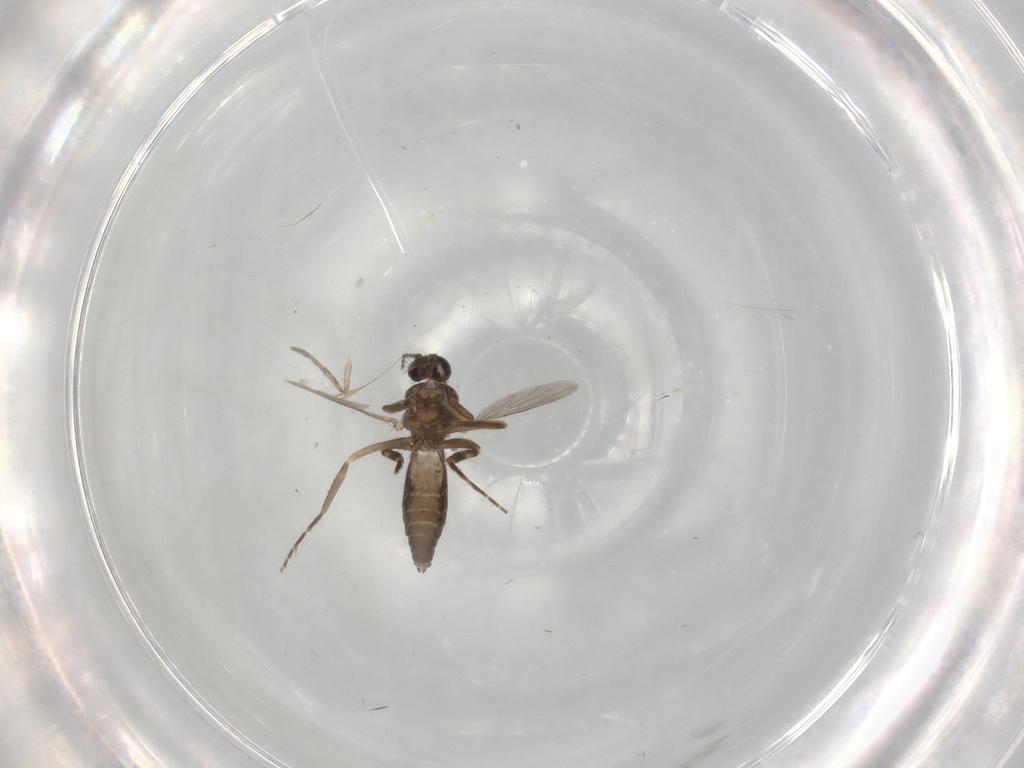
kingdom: Animalia
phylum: Arthropoda
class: Insecta
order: Diptera
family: Ceratopogonidae
